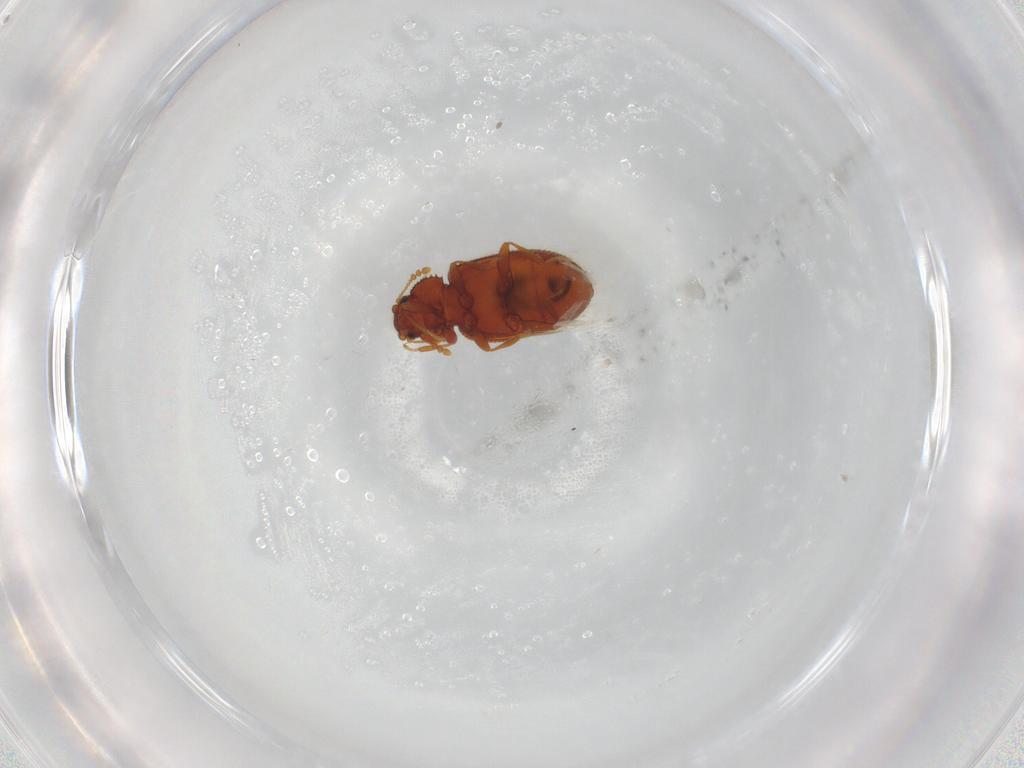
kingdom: Animalia
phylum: Arthropoda
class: Insecta
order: Coleoptera
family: Latridiidae
